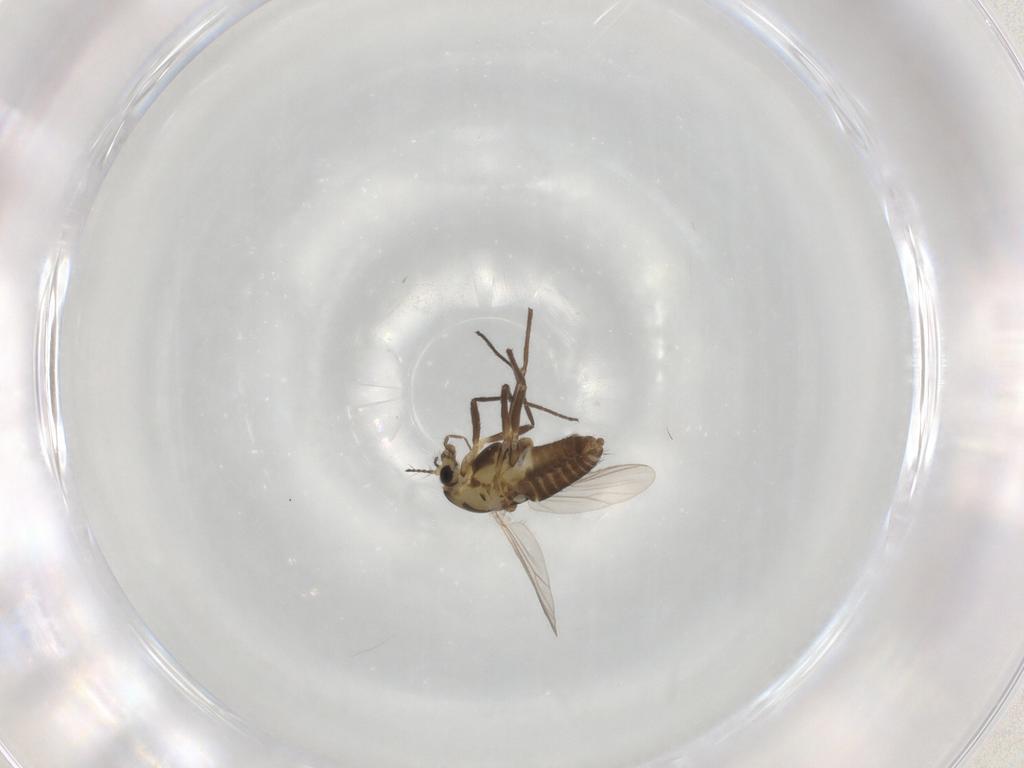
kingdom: Animalia
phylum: Arthropoda
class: Insecta
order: Diptera
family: Chironomidae
